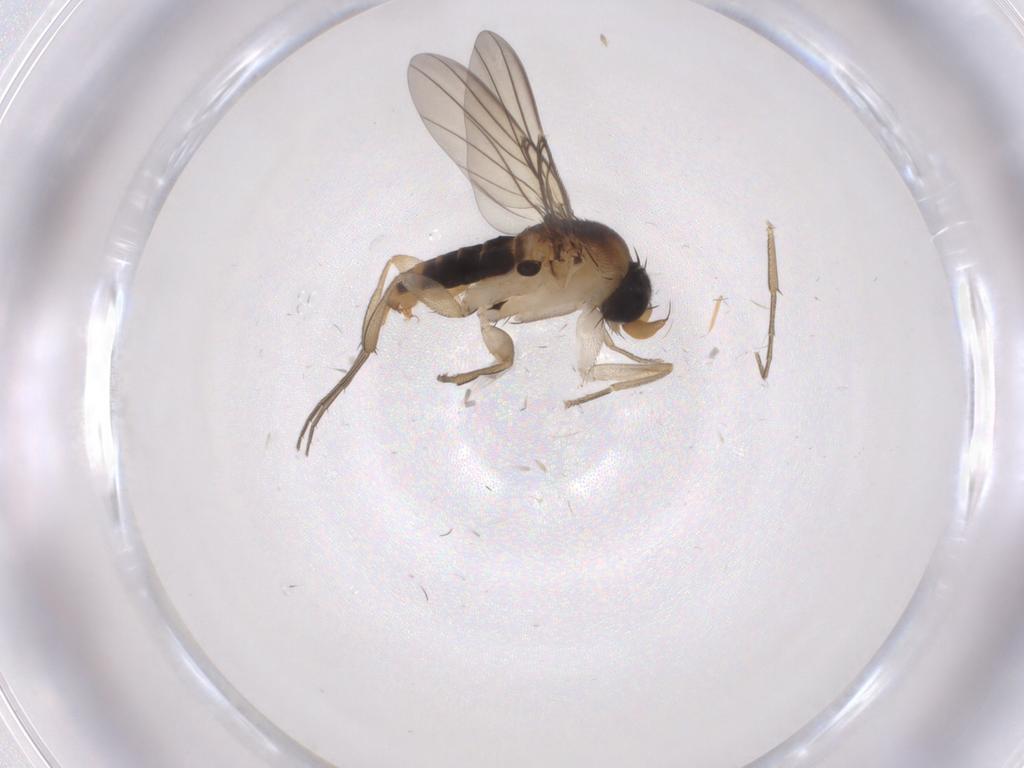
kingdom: Animalia
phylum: Arthropoda
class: Insecta
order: Diptera
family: Phoridae
